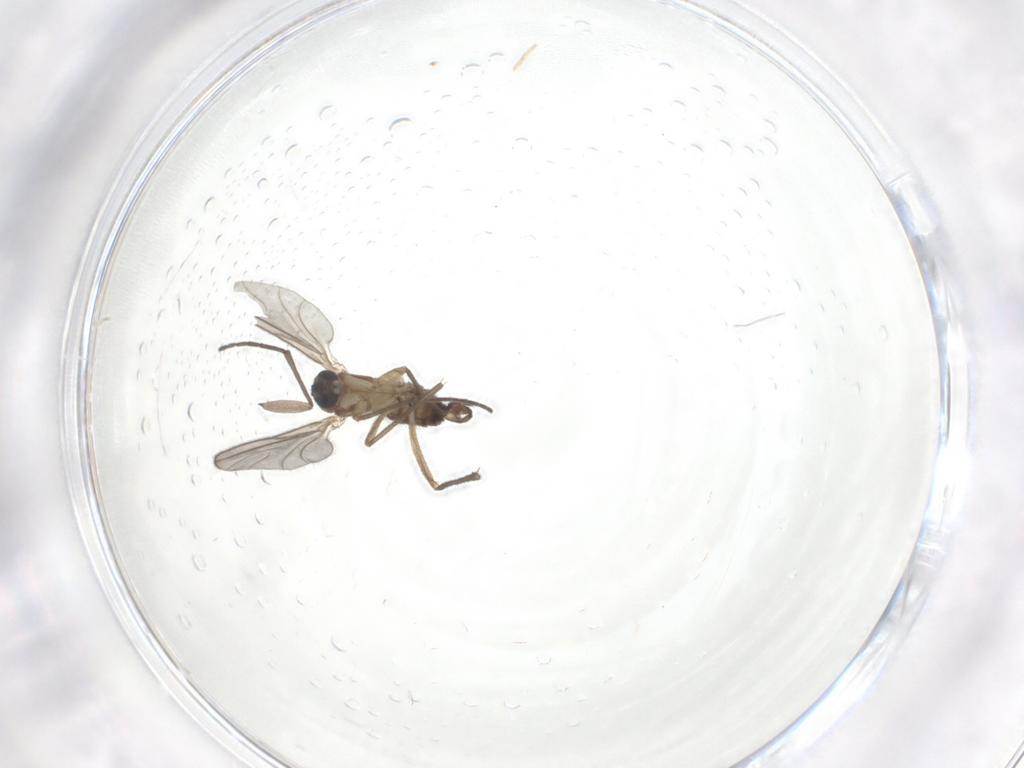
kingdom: Animalia
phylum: Arthropoda
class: Insecta
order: Diptera
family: Sciaridae
